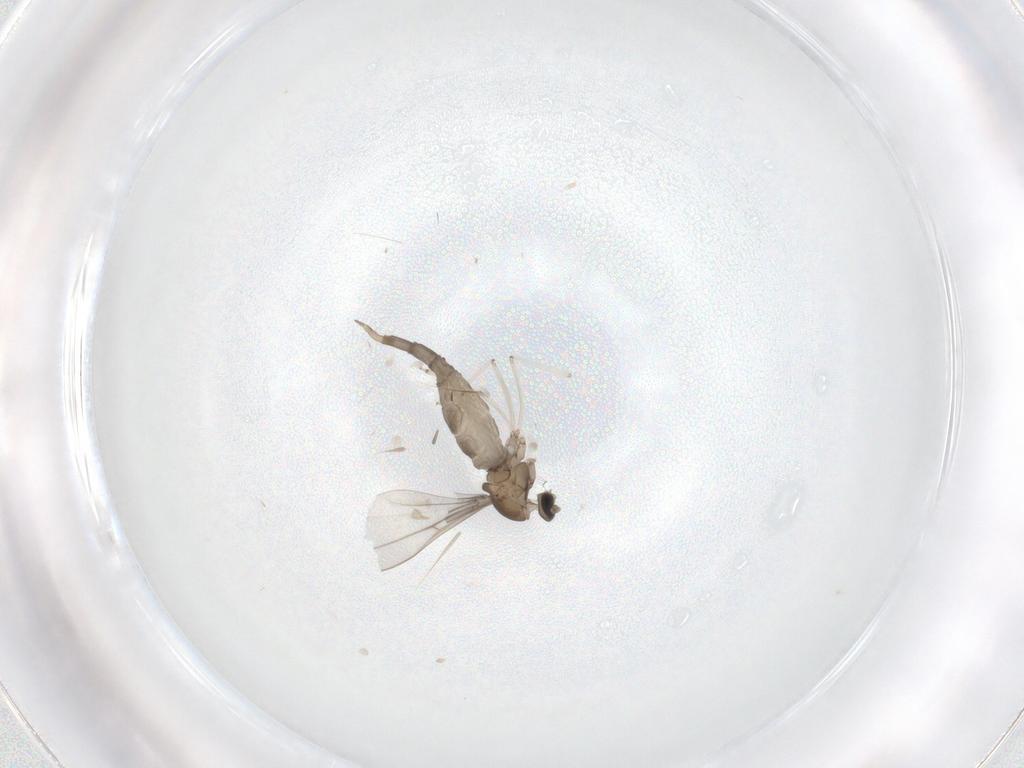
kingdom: Animalia
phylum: Arthropoda
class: Insecta
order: Diptera
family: Cecidomyiidae
